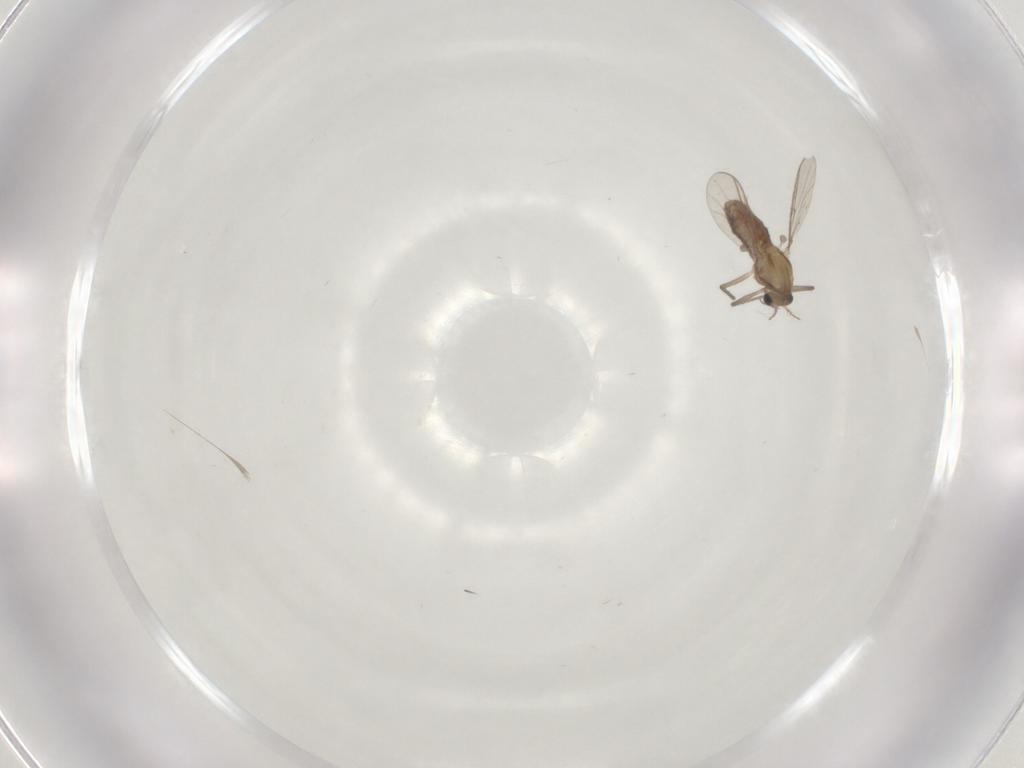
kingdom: Animalia
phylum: Arthropoda
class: Insecta
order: Diptera
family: Chironomidae
